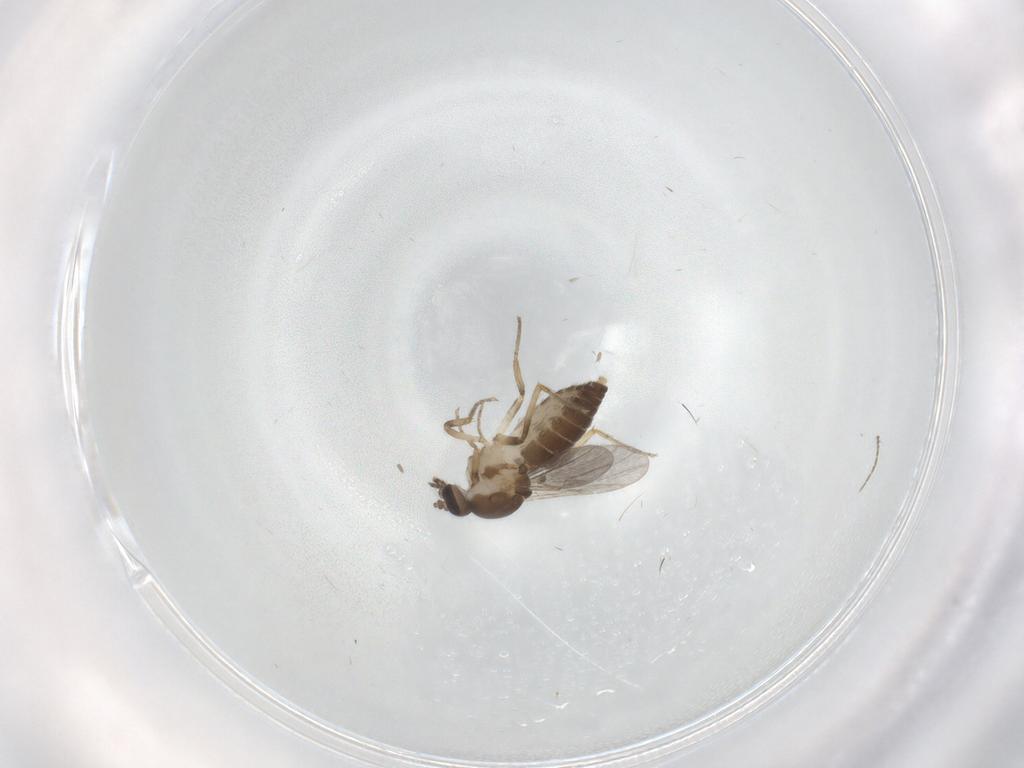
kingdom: Animalia
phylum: Arthropoda
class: Insecta
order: Diptera
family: Ceratopogonidae
